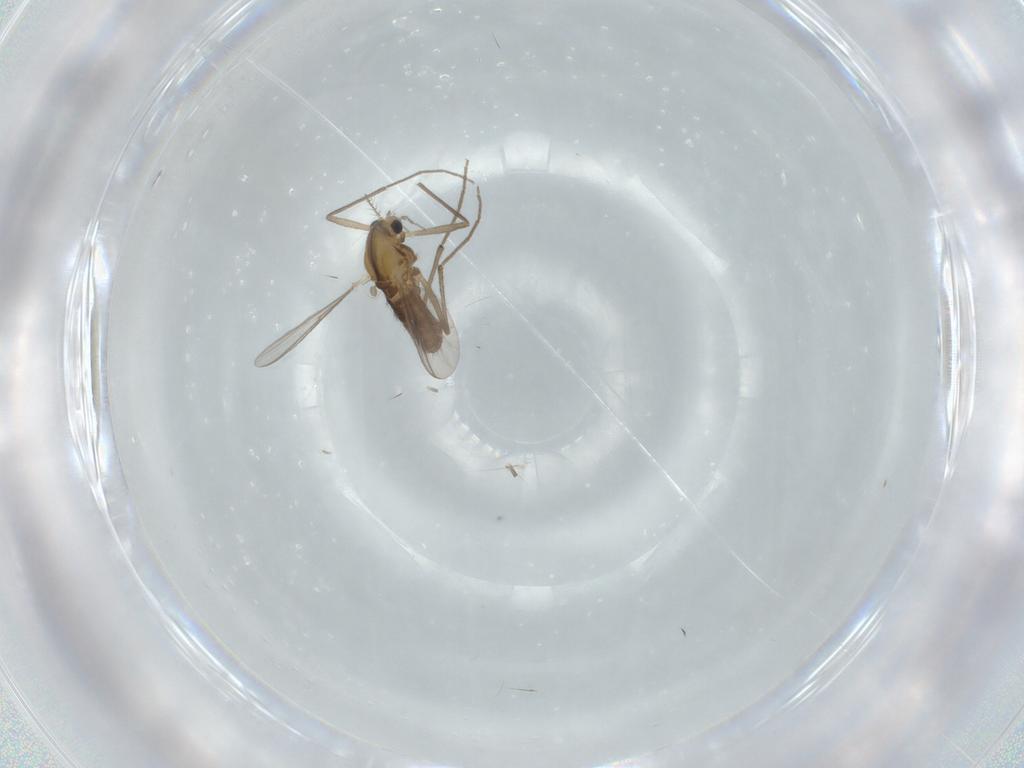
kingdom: Animalia
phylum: Arthropoda
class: Insecta
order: Diptera
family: Chironomidae
